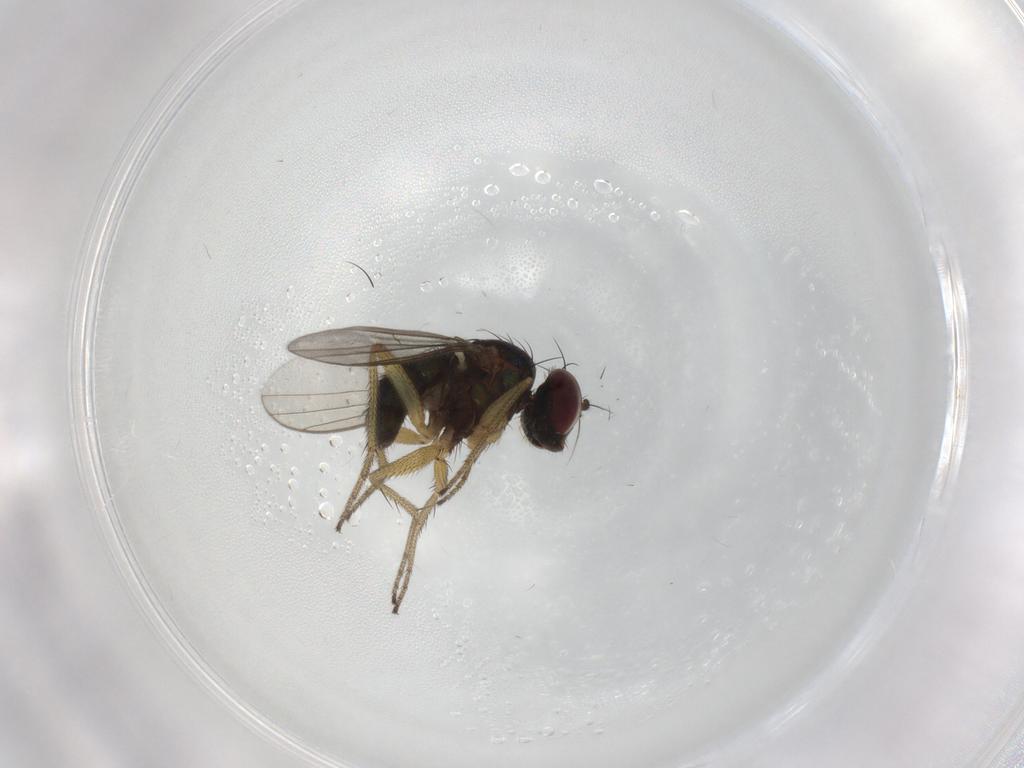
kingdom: Animalia
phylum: Arthropoda
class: Insecta
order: Diptera
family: Dolichopodidae
